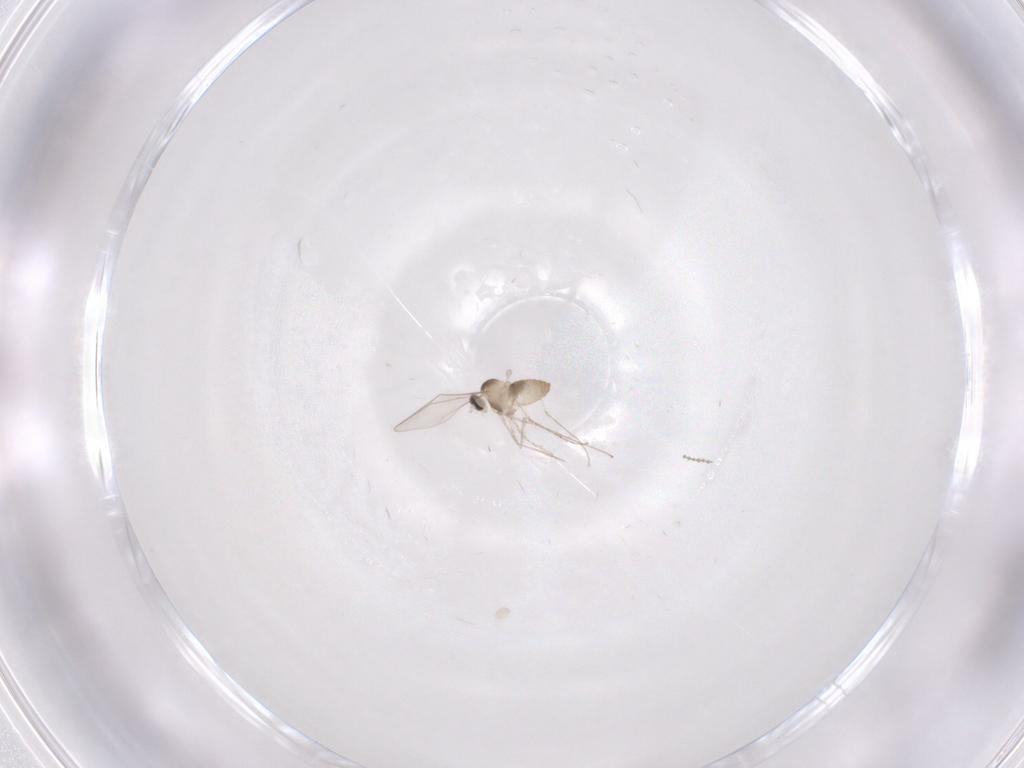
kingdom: Animalia
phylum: Arthropoda
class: Insecta
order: Diptera
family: Cecidomyiidae
